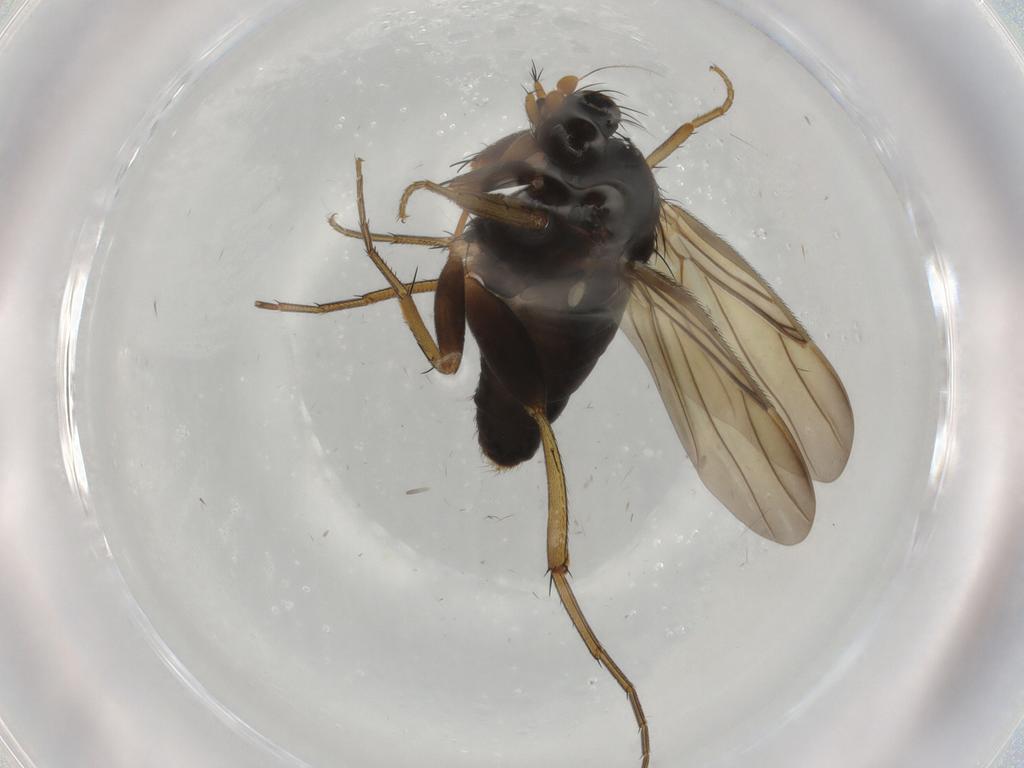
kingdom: Animalia
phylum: Arthropoda
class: Insecta
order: Diptera
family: Phoridae
